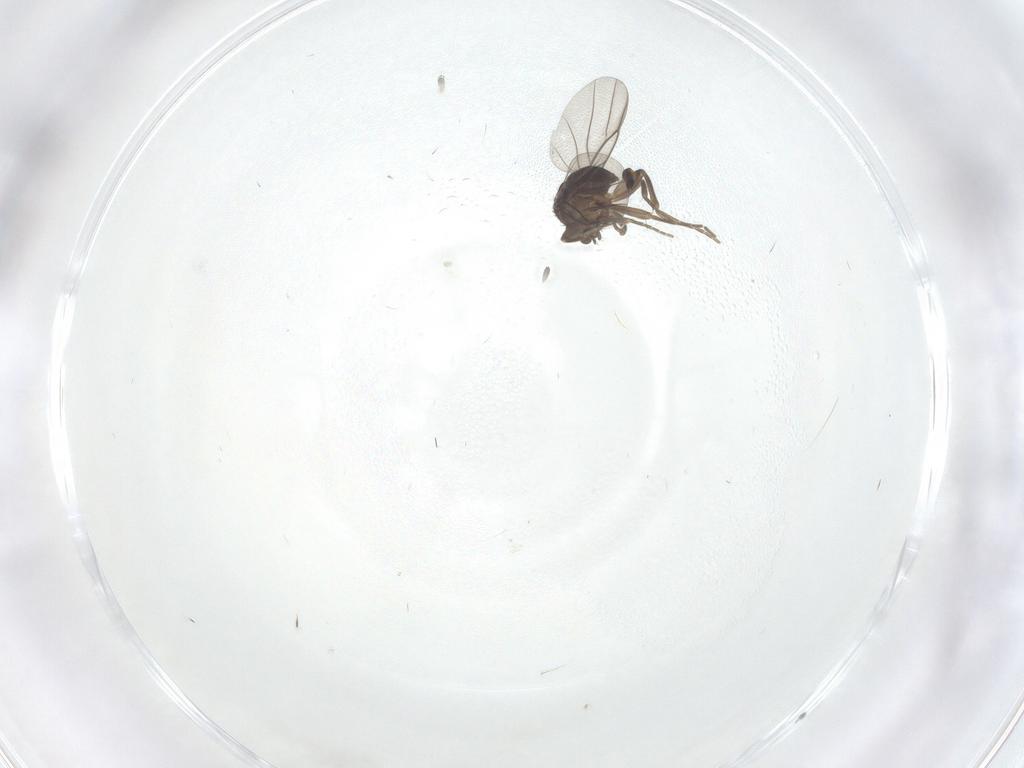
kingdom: Animalia
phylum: Arthropoda
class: Insecta
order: Diptera
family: Ceratopogonidae
